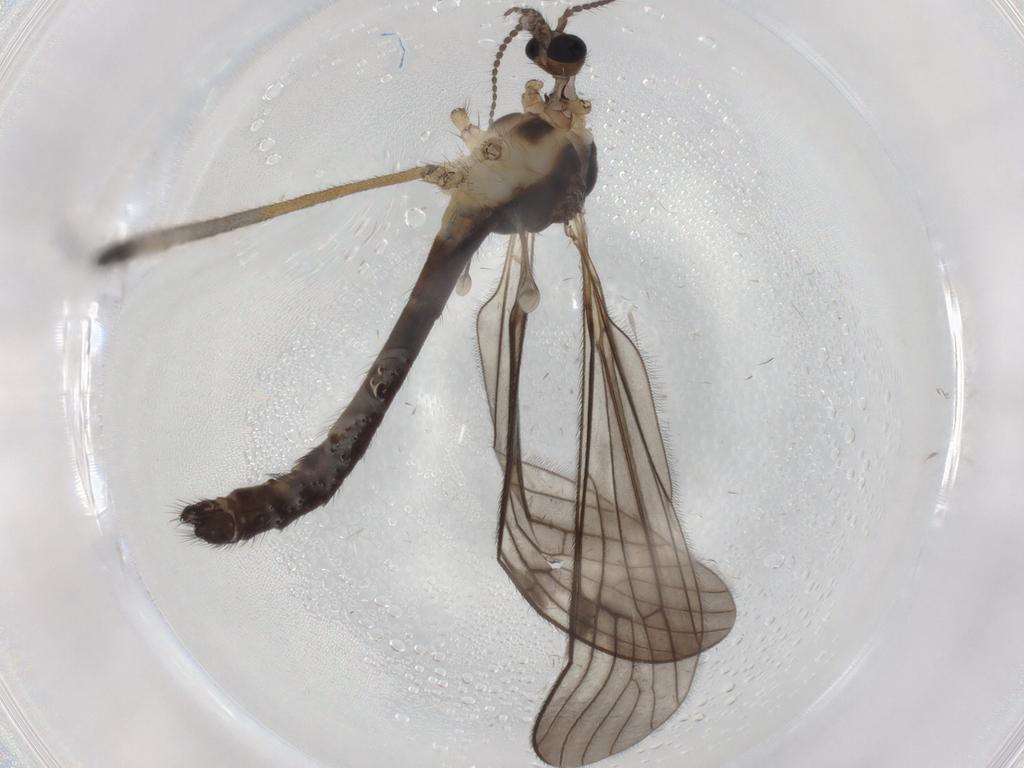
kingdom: Animalia
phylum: Arthropoda
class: Insecta
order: Diptera
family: Limoniidae
